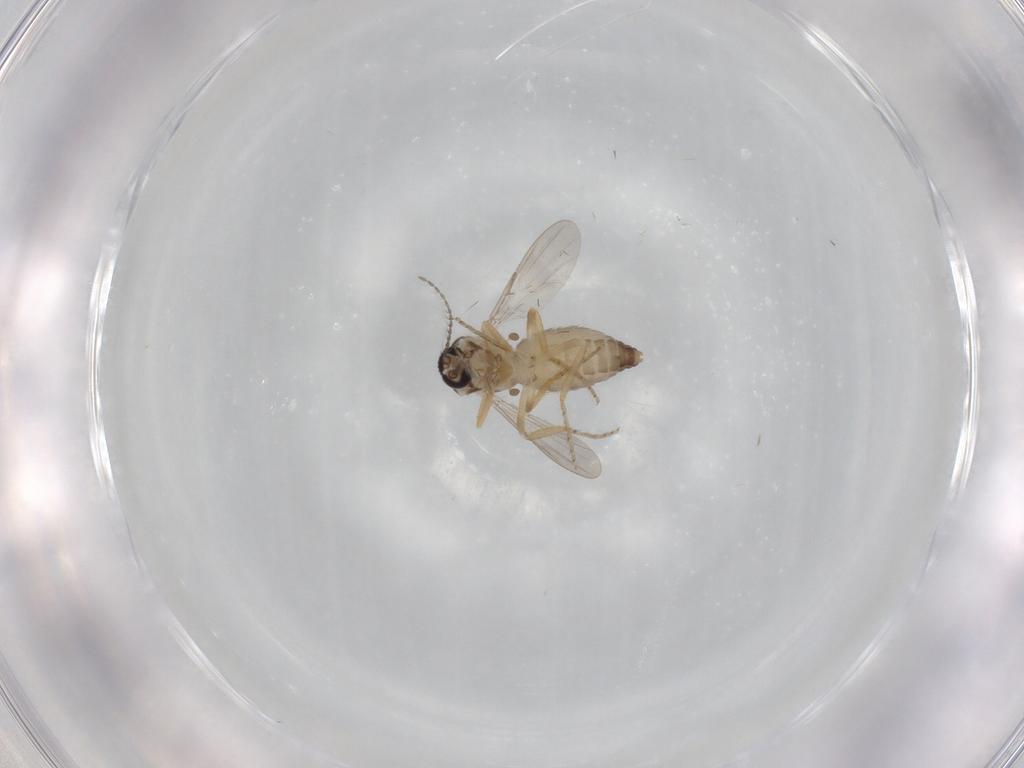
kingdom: Animalia
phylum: Arthropoda
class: Insecta
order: Diptera
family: Ceratopogonidae
